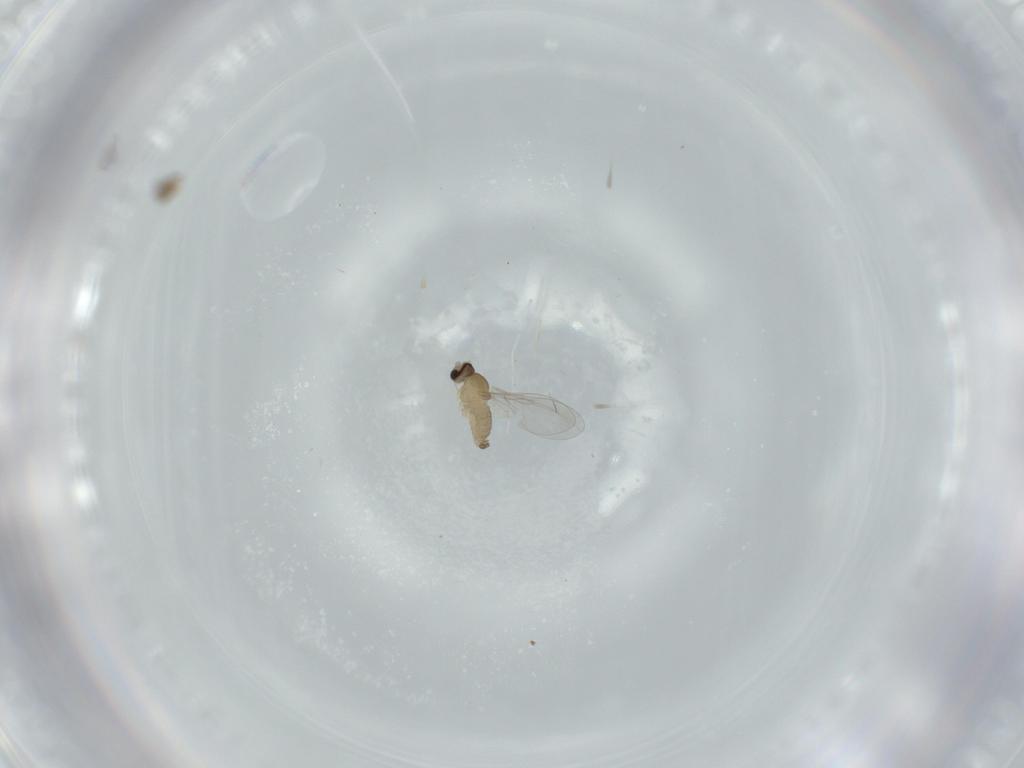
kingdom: Animalia
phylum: Arthropoda
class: Insecta
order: Diptera
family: Cecidomyiidae
